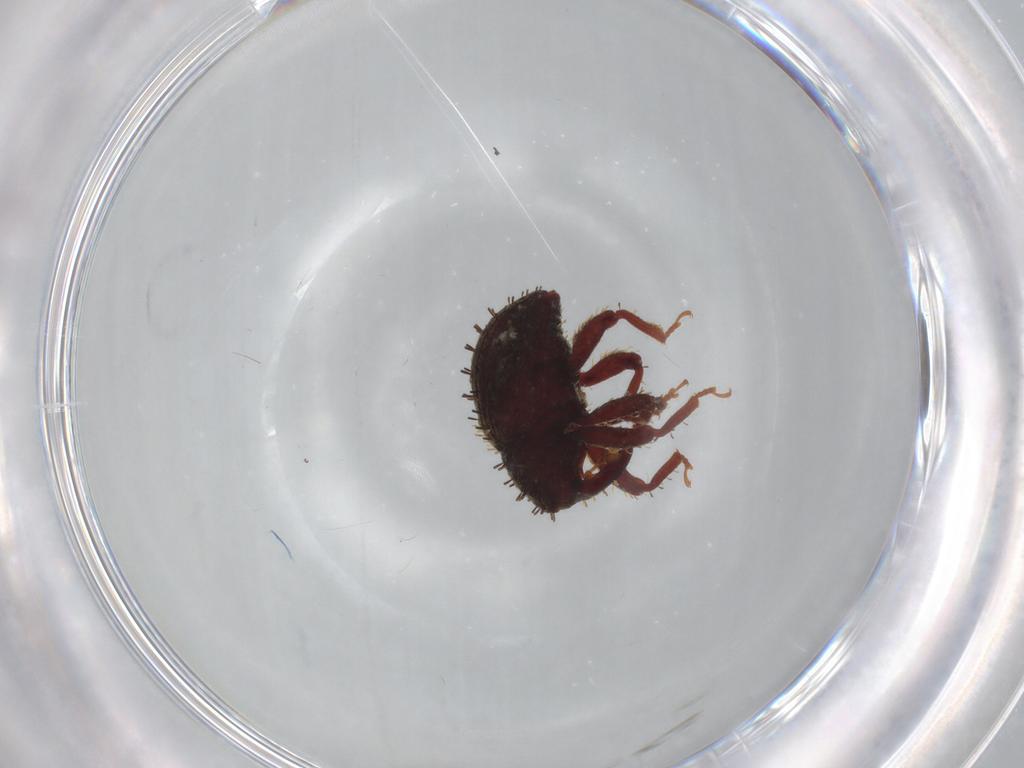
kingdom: Animalia
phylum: Arthropoda
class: Insecta
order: Coleoptera
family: Curculionidae
